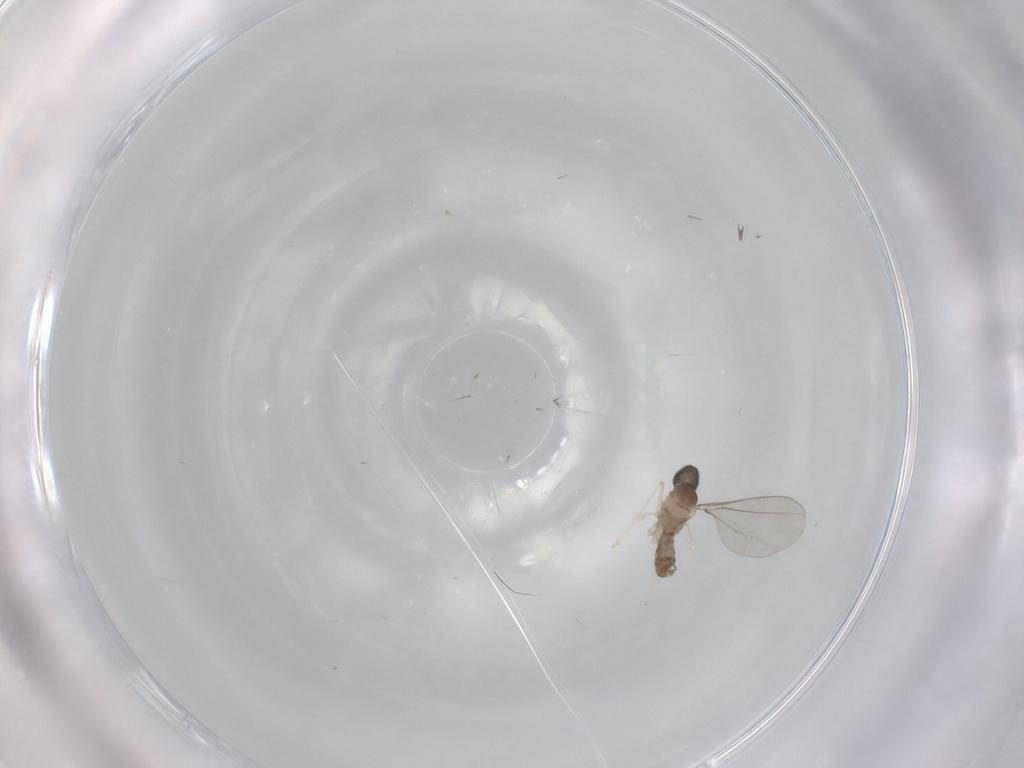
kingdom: Animalia
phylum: Arthropoda
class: Insecta
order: Diptera
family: Cecidomyiidae
